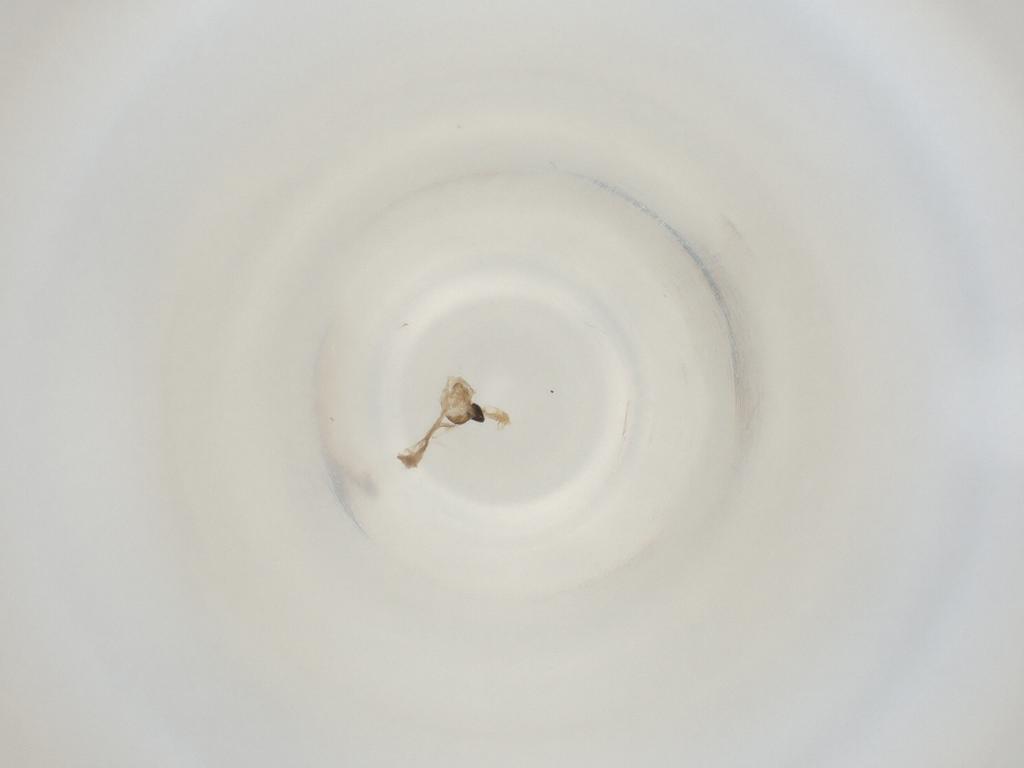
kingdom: Animalia
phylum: Arthropoda
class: Insecta
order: Diptera
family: Cecidomyiidae
